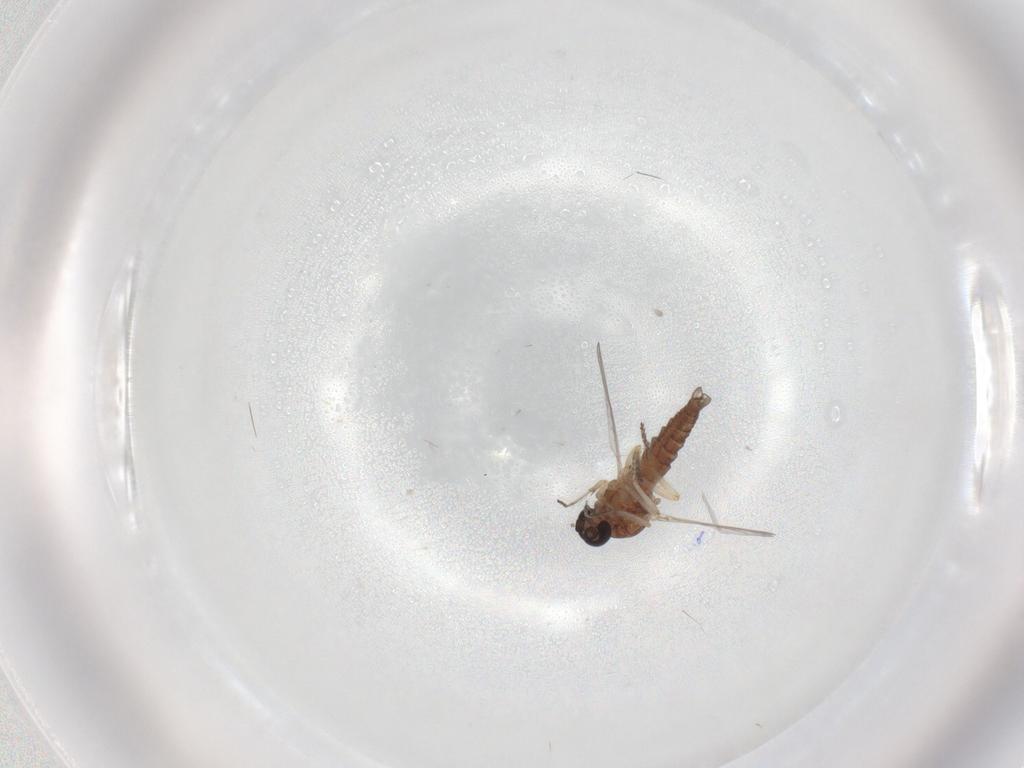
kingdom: Animalia
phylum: Arthropoda
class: Insecta
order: Diptera
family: Ceratopogonidae
